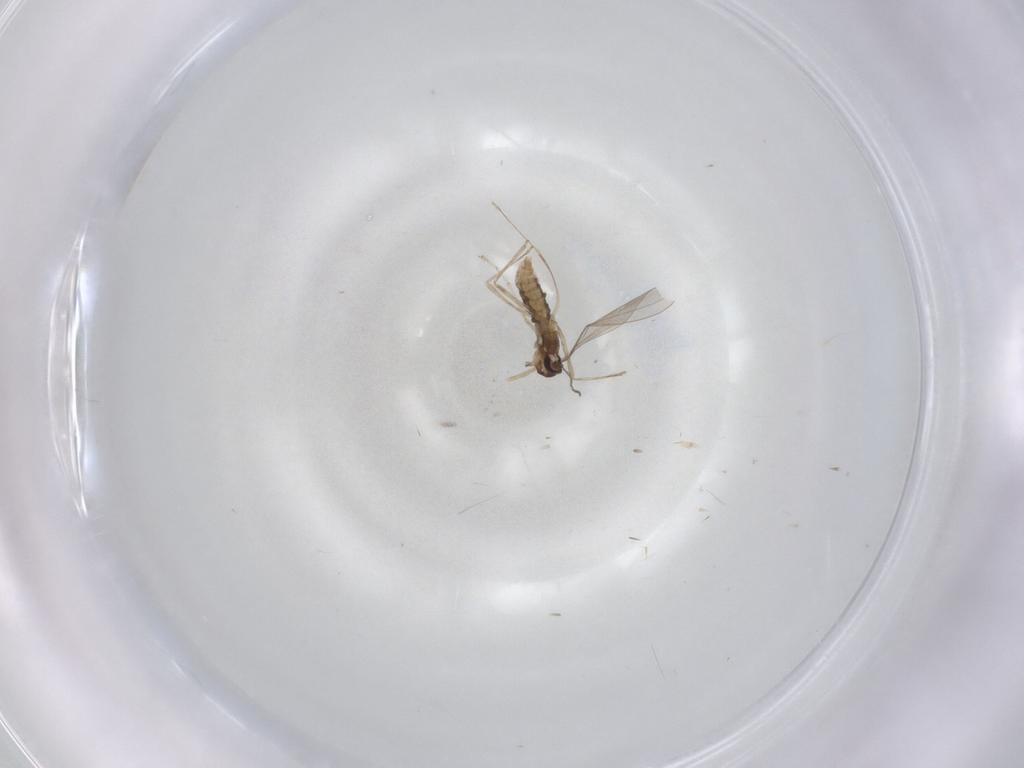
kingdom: Animalia
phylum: Arthropoda
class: Insecta
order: Diptera
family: Cecidomyiidae
